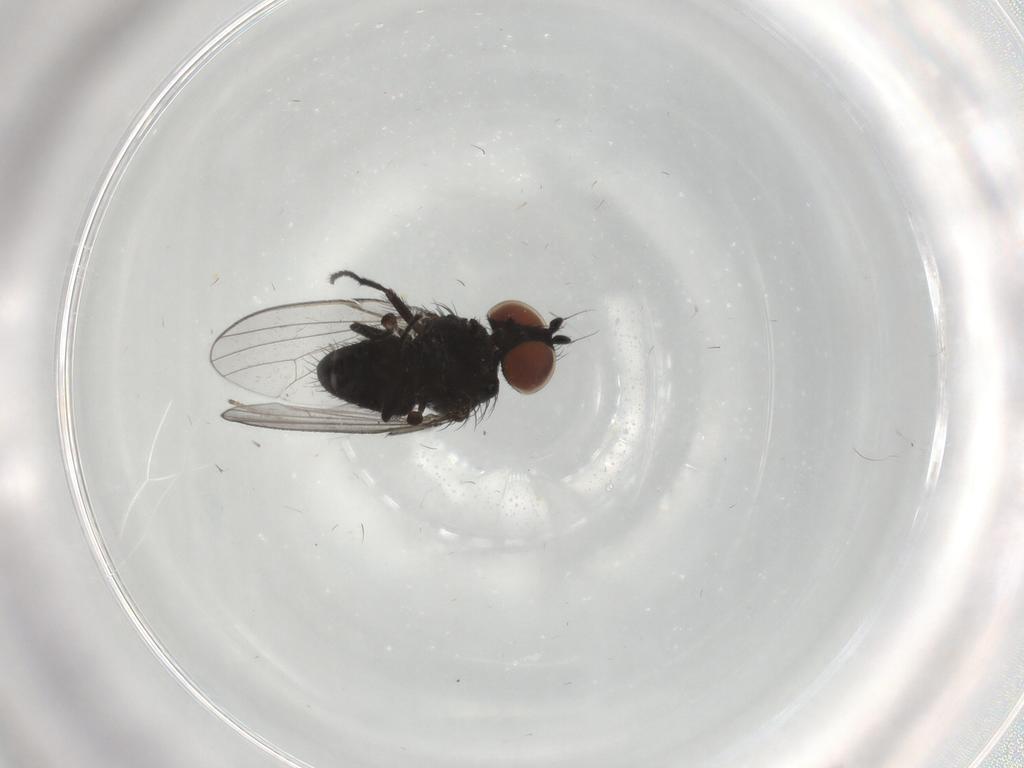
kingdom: Animalia
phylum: Arthropoda
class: Insecta
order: Diptera
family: Milichiidae
